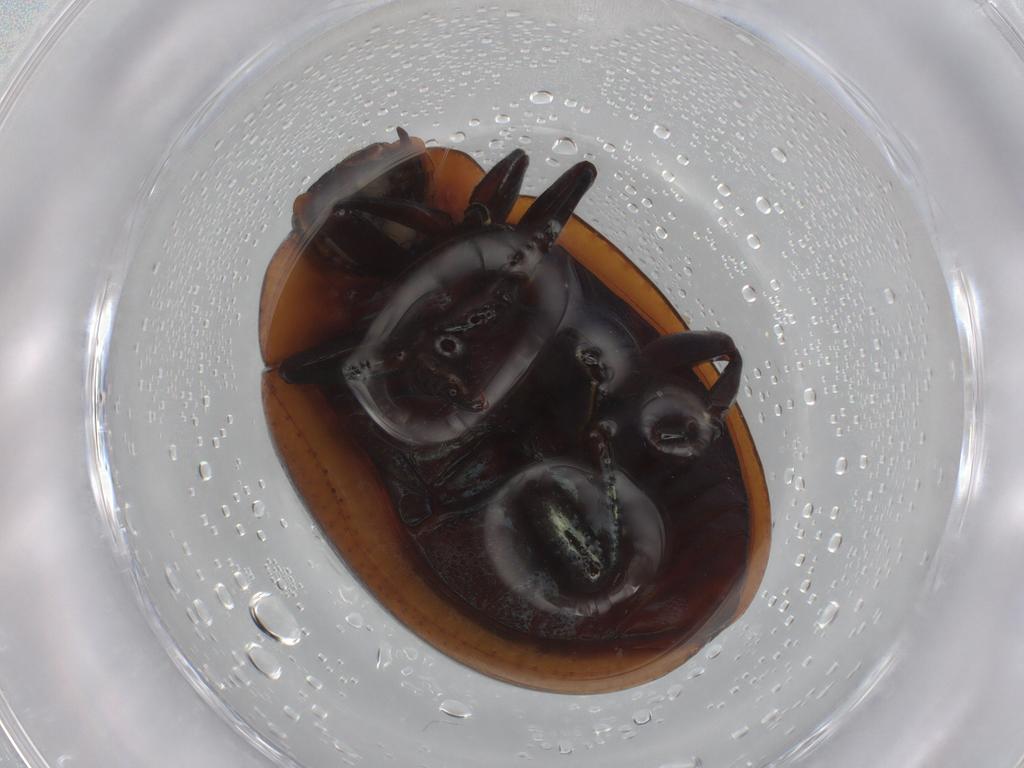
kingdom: Animalia
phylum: Arthropoda
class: Insecta
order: Coleoptera
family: Chrysomelidae
